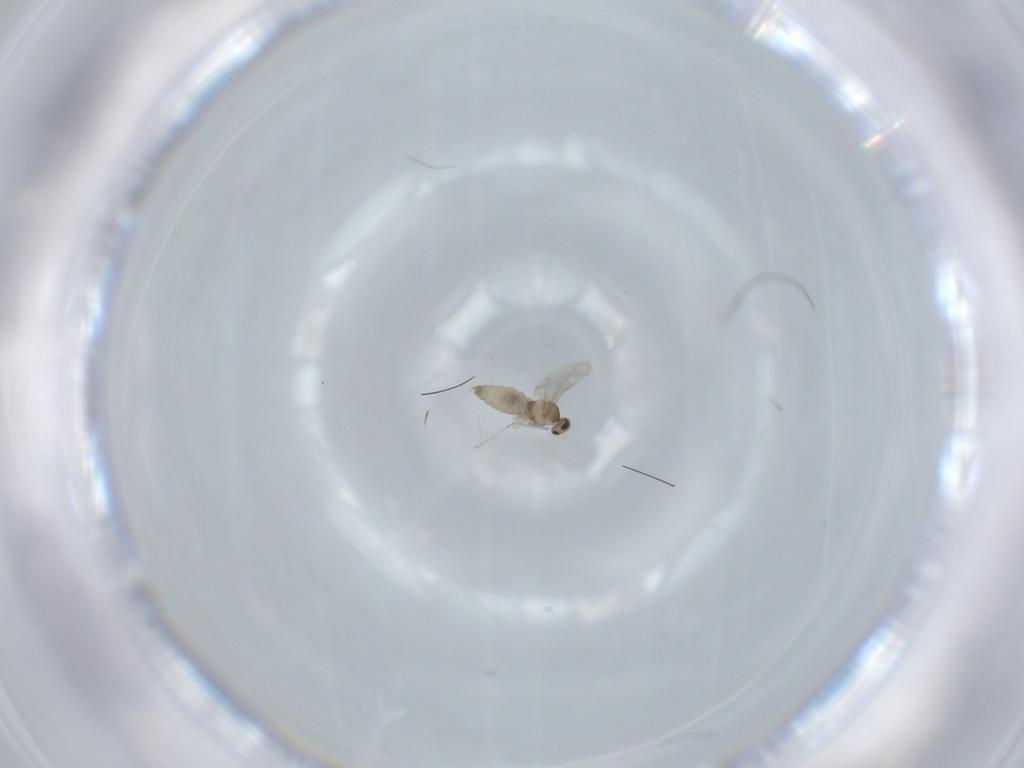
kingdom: Animalia
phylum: Arthropoda
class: Insecta
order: Diptera
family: Cecidomyiidae
